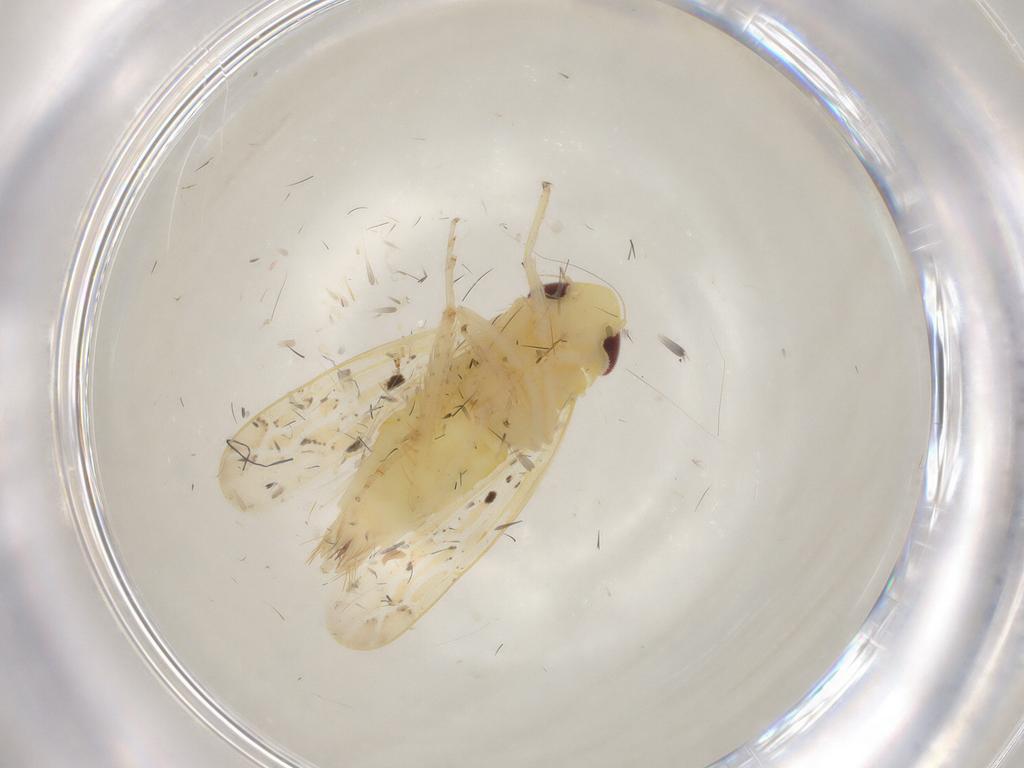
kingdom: Animalia
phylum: Arthropoda
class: Insecta
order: Hemiptera
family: Cicadellidae
